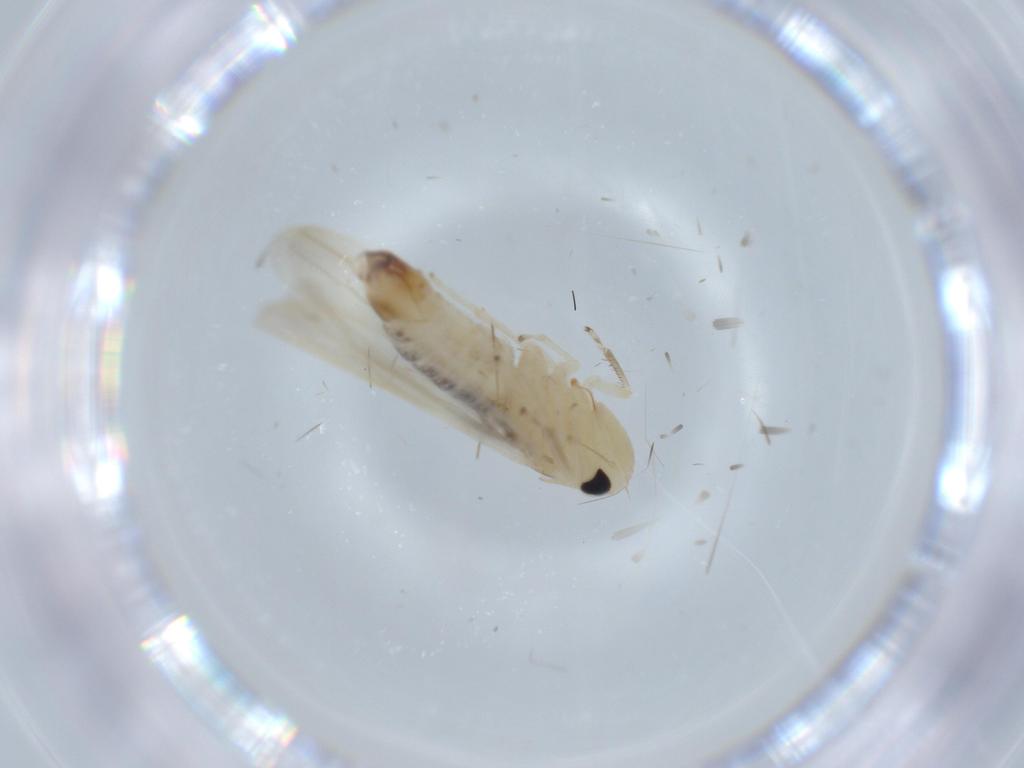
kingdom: Animalia
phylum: Arthropoda
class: Insecta
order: Hemiptera
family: Cicadellidae
